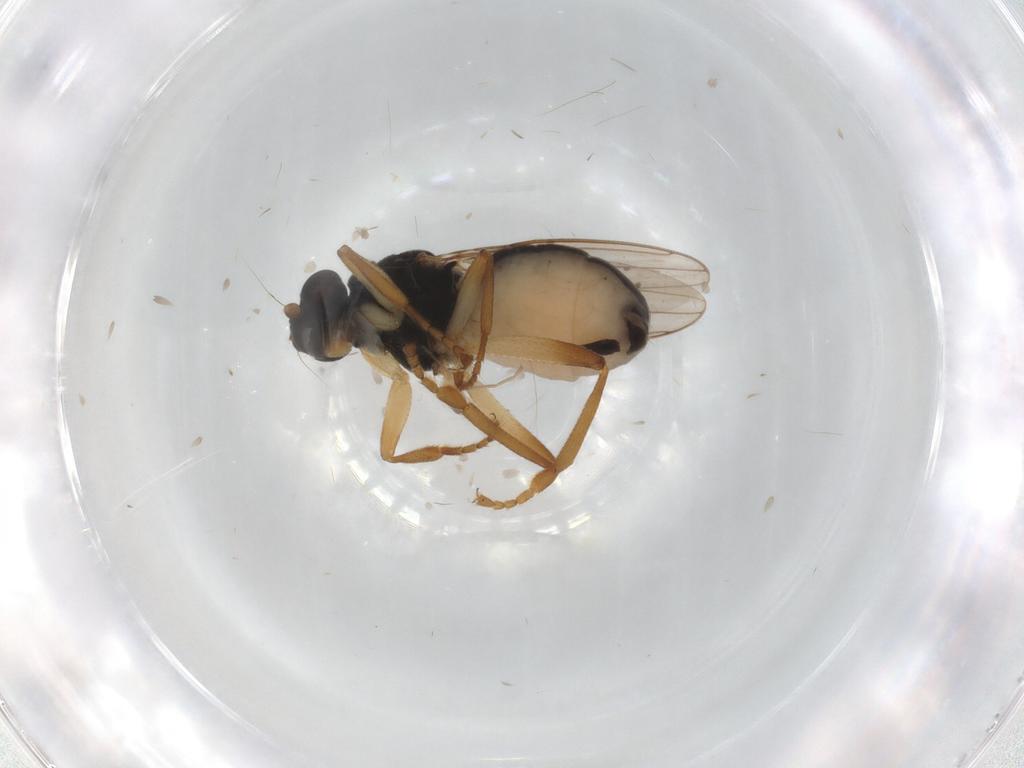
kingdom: Animalia
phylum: Arthropoda
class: Insecta
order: Diptera
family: Sphaeroceridae
